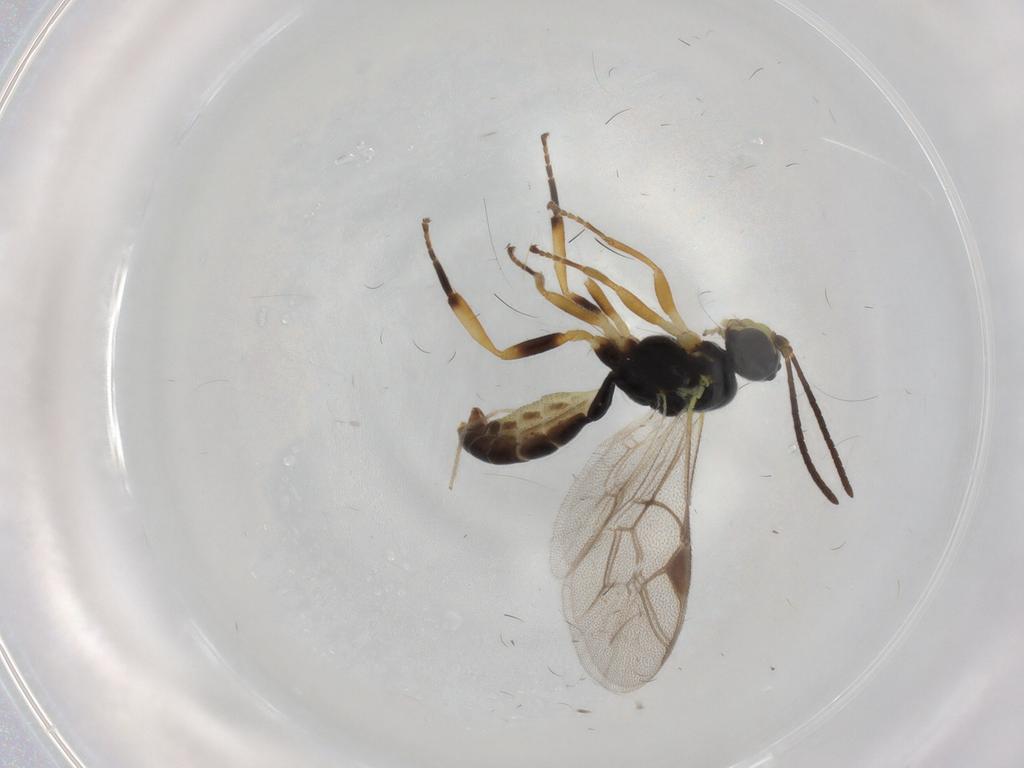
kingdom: Animalia
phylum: Arthropoda
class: Insecta
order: Hymenoptera
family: Ichneumonidae
